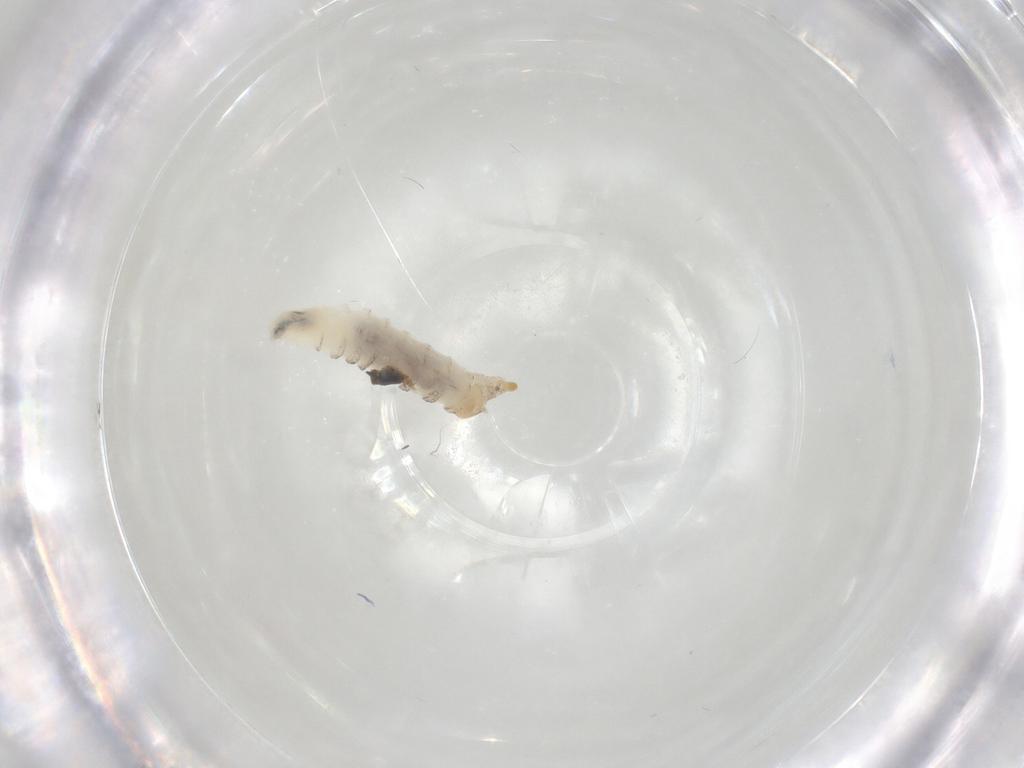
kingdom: Animalia
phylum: Arthropoda
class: Insecta
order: Diptera
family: Drosophilidae
